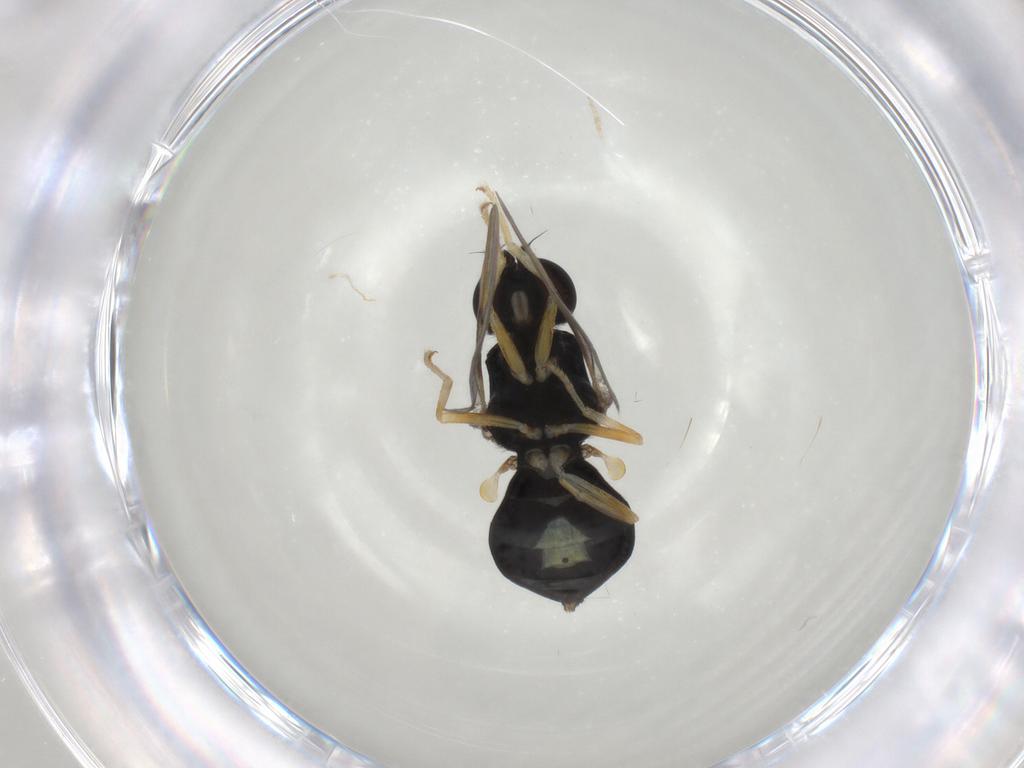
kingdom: Animalia
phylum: Arthropoda
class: Insecta
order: Diptera
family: Stratiomyidae
